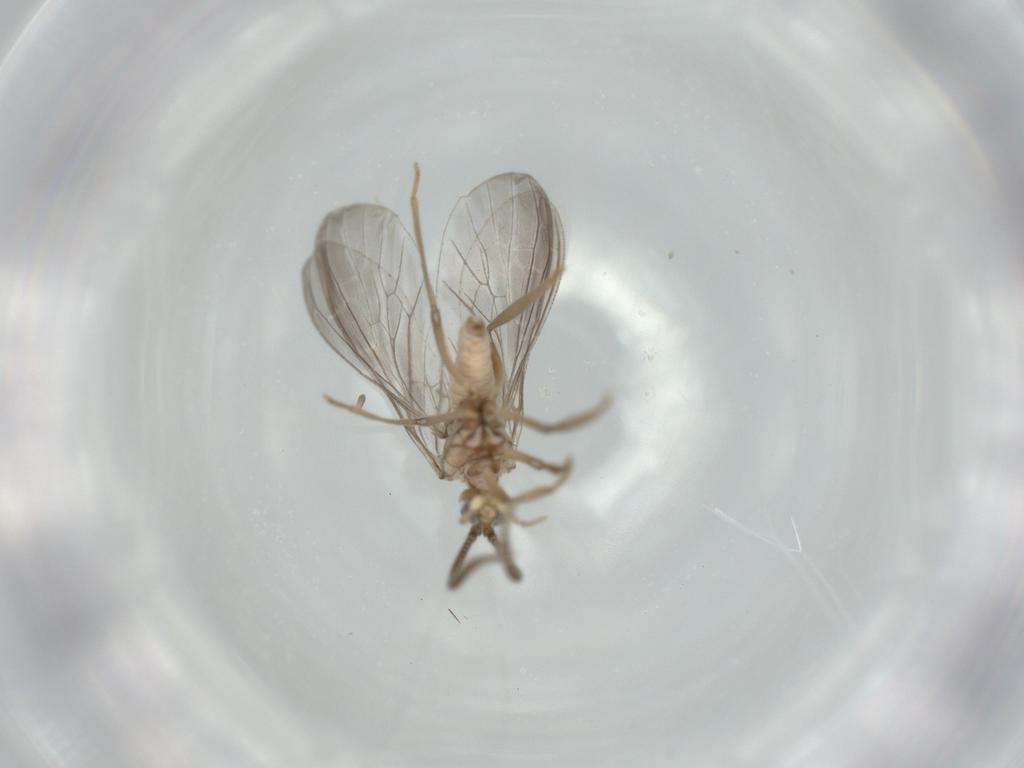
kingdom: Animalia
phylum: Arthropoda
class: Insecta
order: Neuroptera
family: Coniopterygidae
